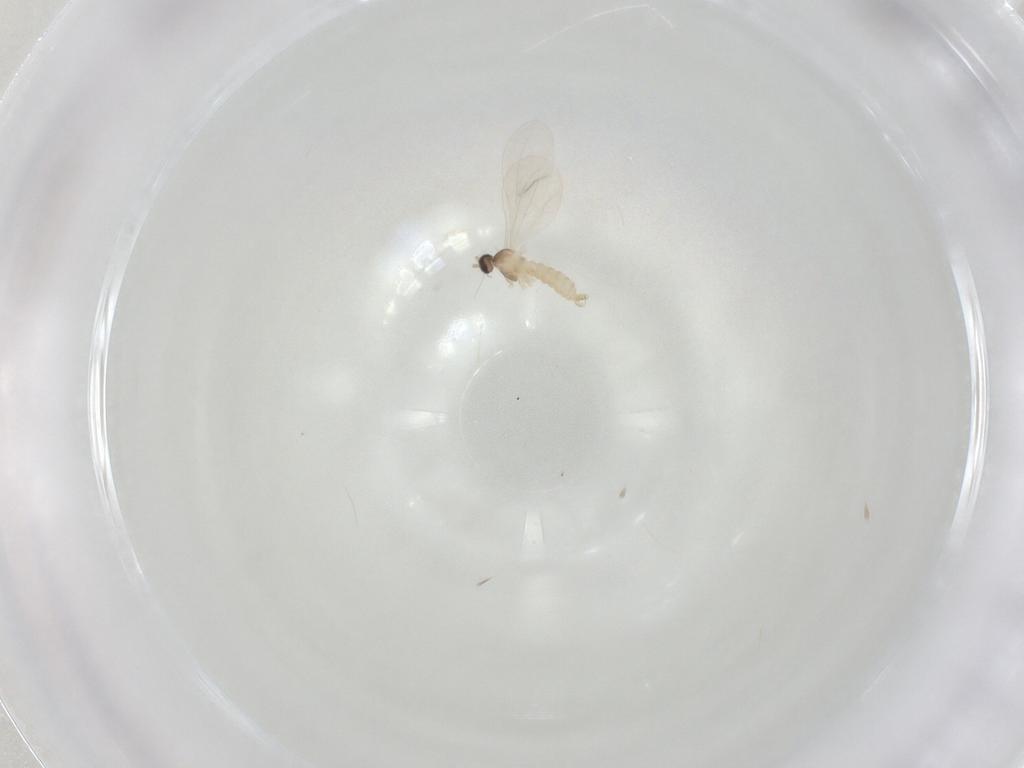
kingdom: Animalia
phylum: Arthropoda
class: Insecta
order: Diptera
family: Cecidomyiidae
